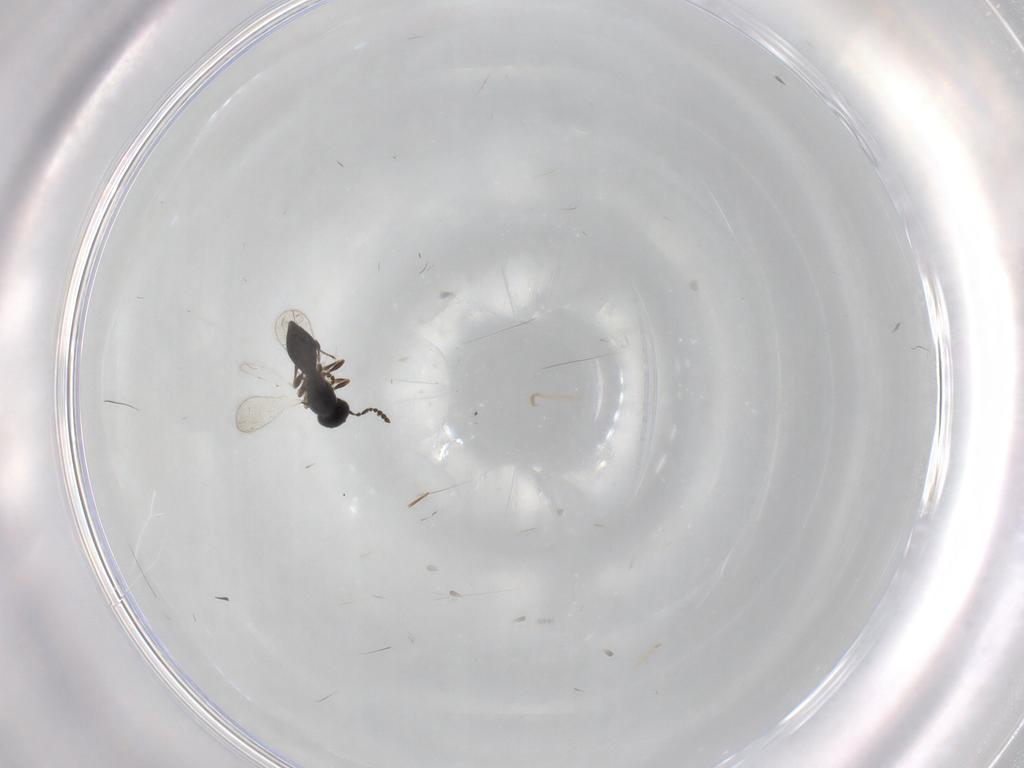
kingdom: Animalia
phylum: Arthropoda
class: Insecta
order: Hymenoptera
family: Platygastridae
